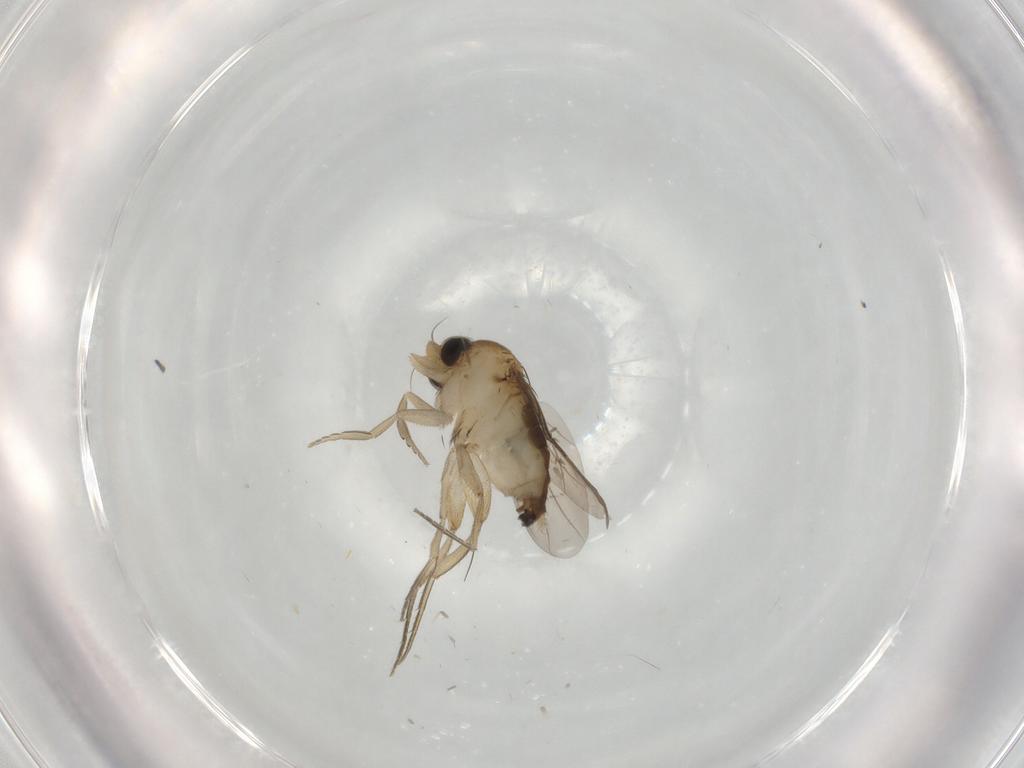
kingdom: Animalia
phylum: Arthropoda
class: Insecta
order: Diptera
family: Phoridae
